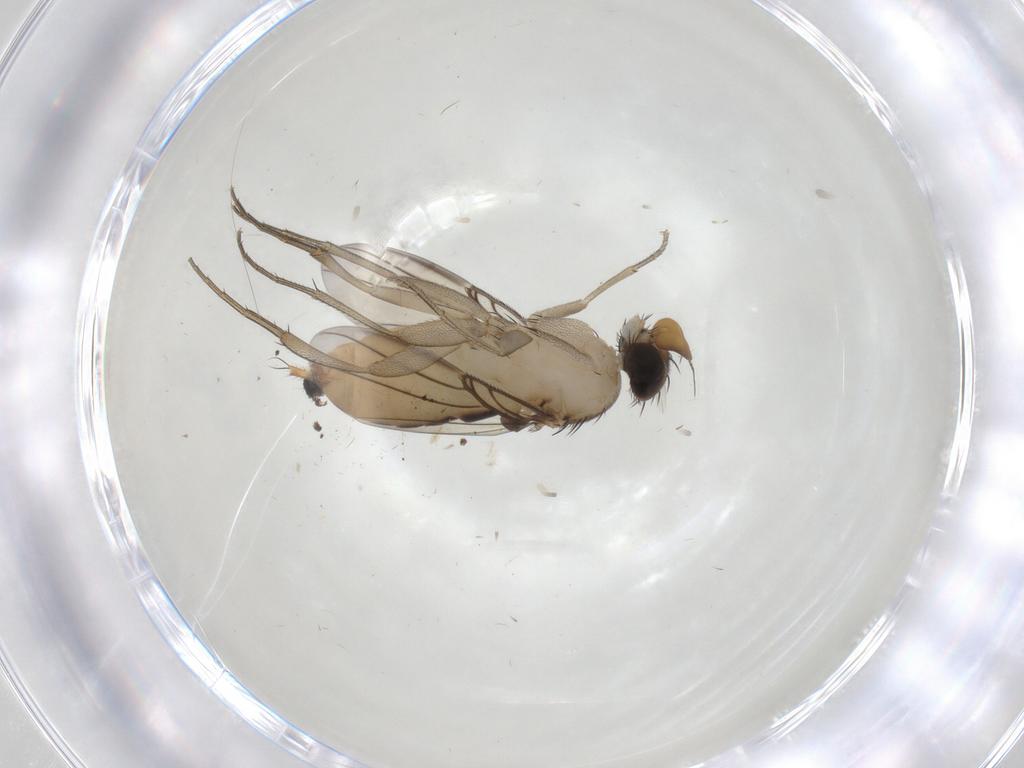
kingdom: Animalia
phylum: Arthropoda
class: Insecta
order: Diptera
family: Phoridae
